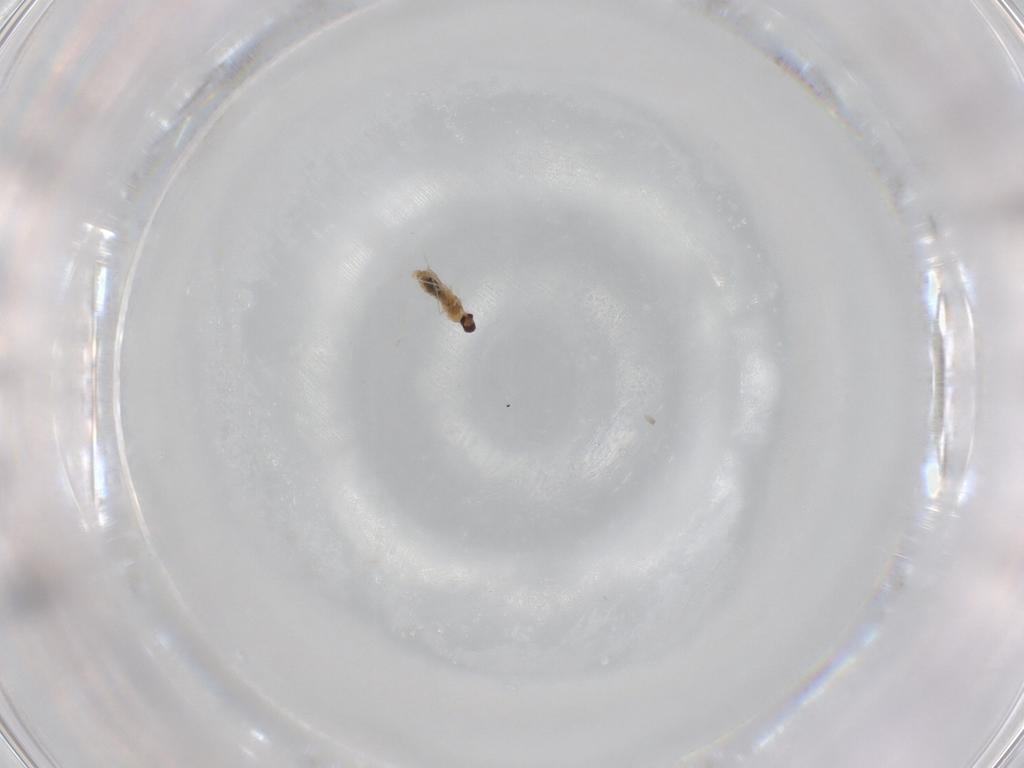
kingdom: Animalia
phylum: Arthropoda
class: Insecta
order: Diptera
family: Cecidomyiidae
